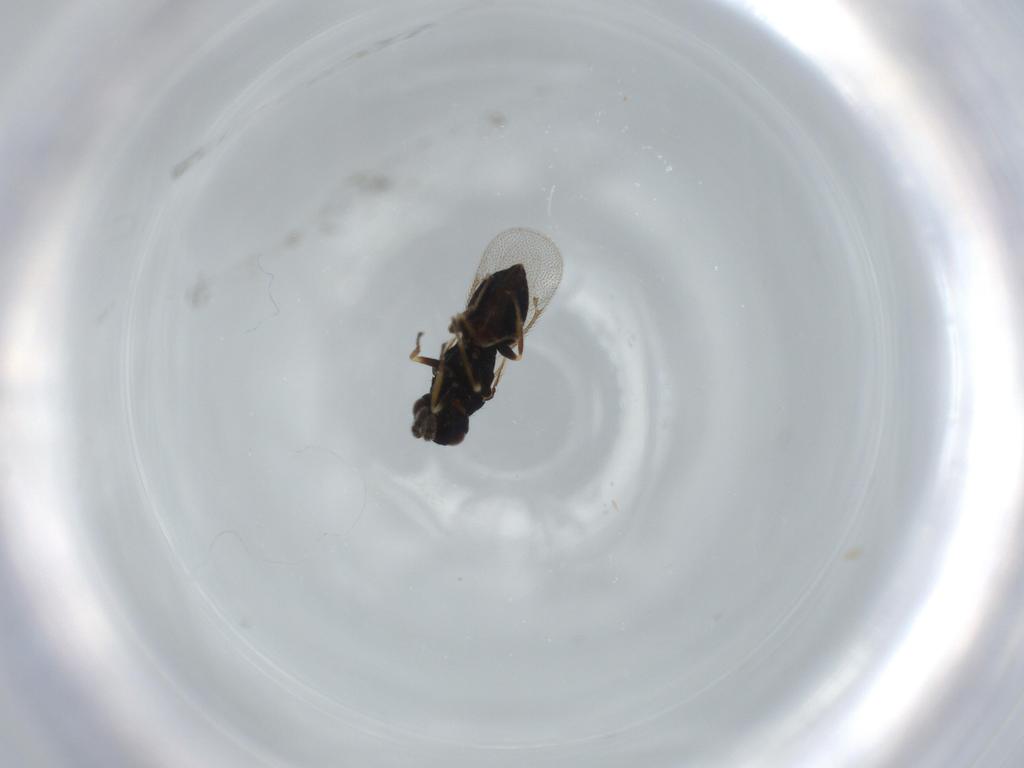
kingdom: Animalia
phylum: Arthropoda
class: Insecta
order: Hymenoptera
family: Eulophidae
